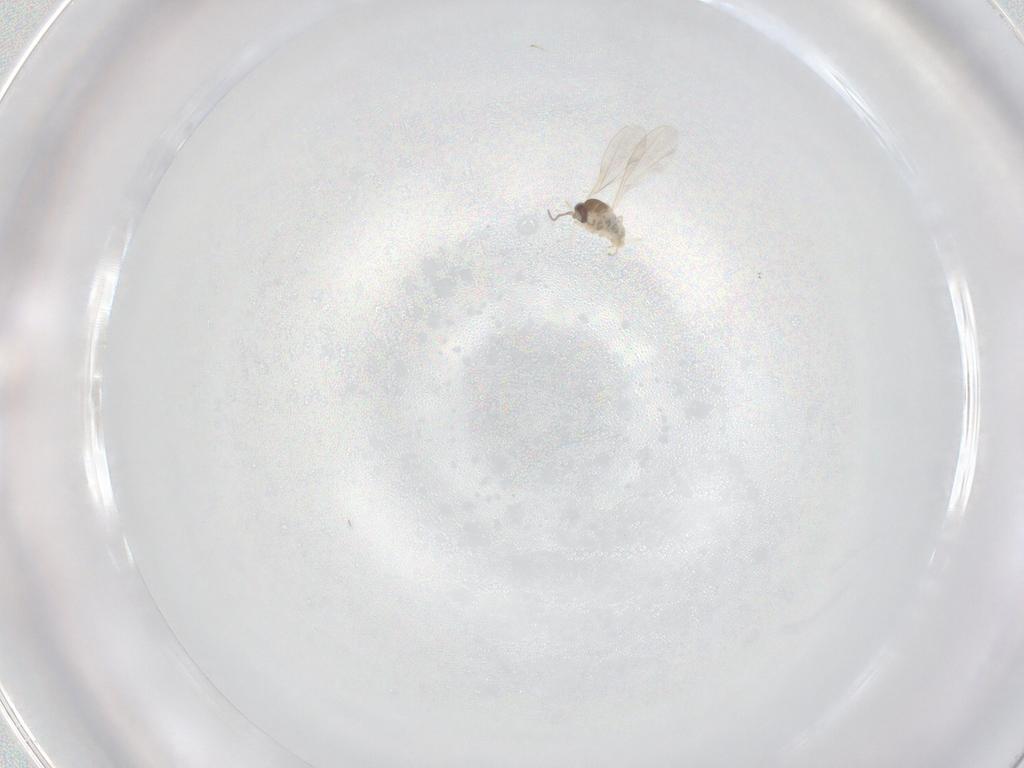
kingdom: Animalia
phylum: Arthropoda
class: Insecta
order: Diptera
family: Cecidomyiidae
